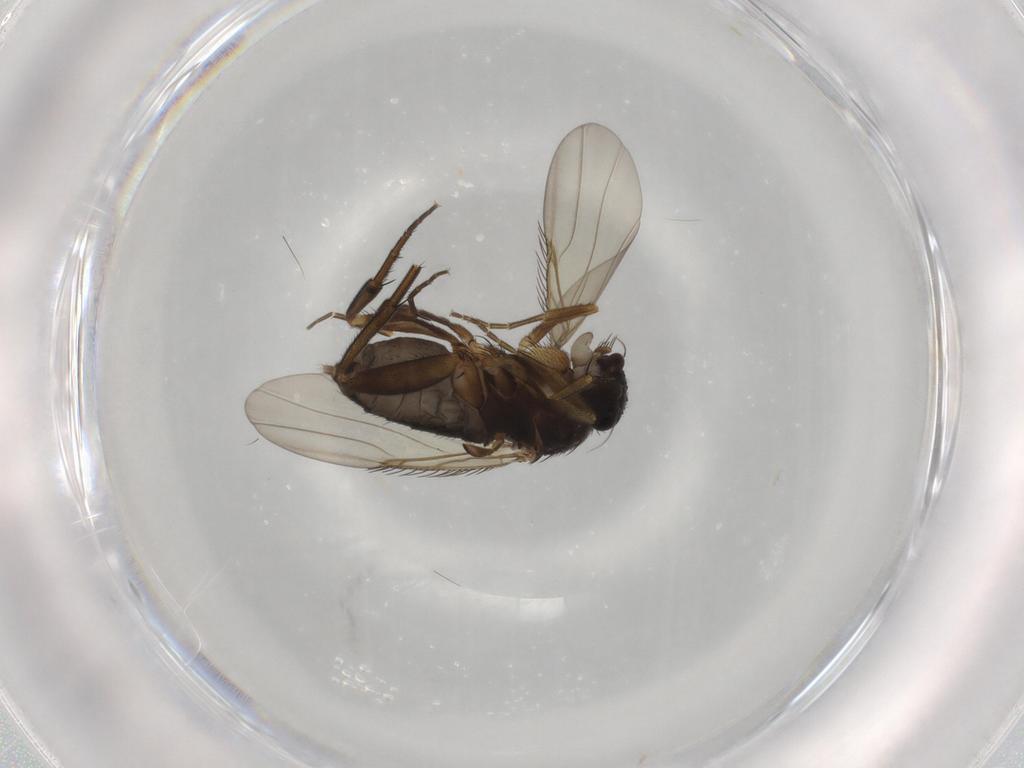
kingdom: Animalia
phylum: Arthropoda
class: Insecta
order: Diptera
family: Phoridae
